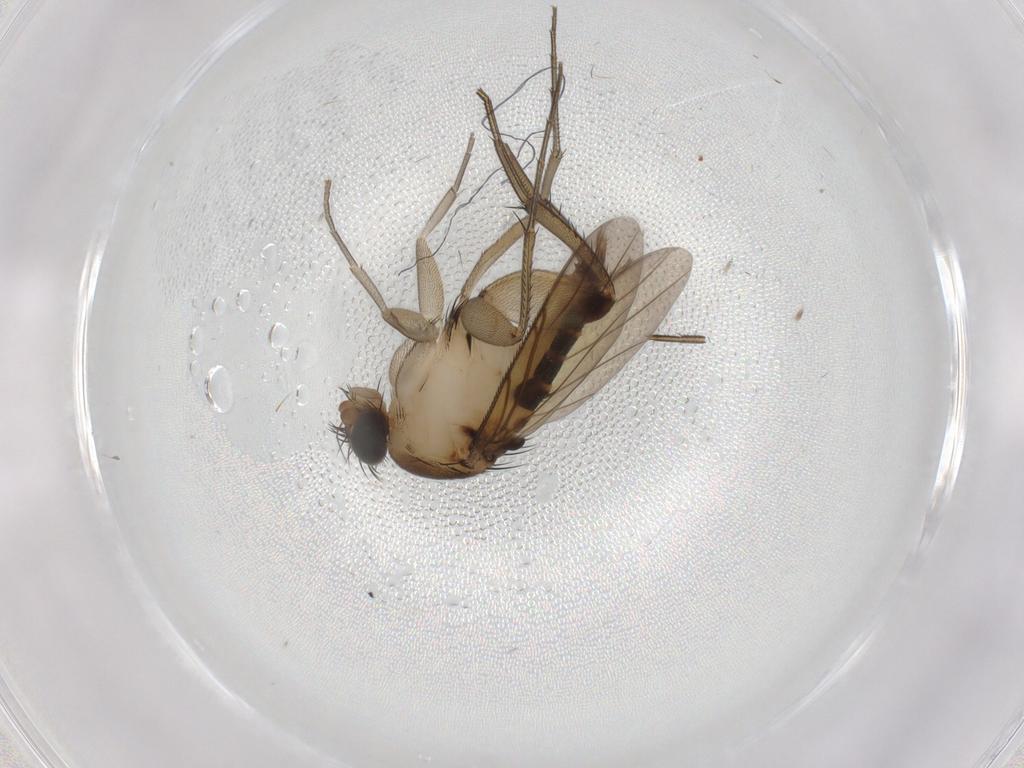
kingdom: Animalia
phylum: Arthropoda
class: Insecta
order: Diptera
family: Phoridae
